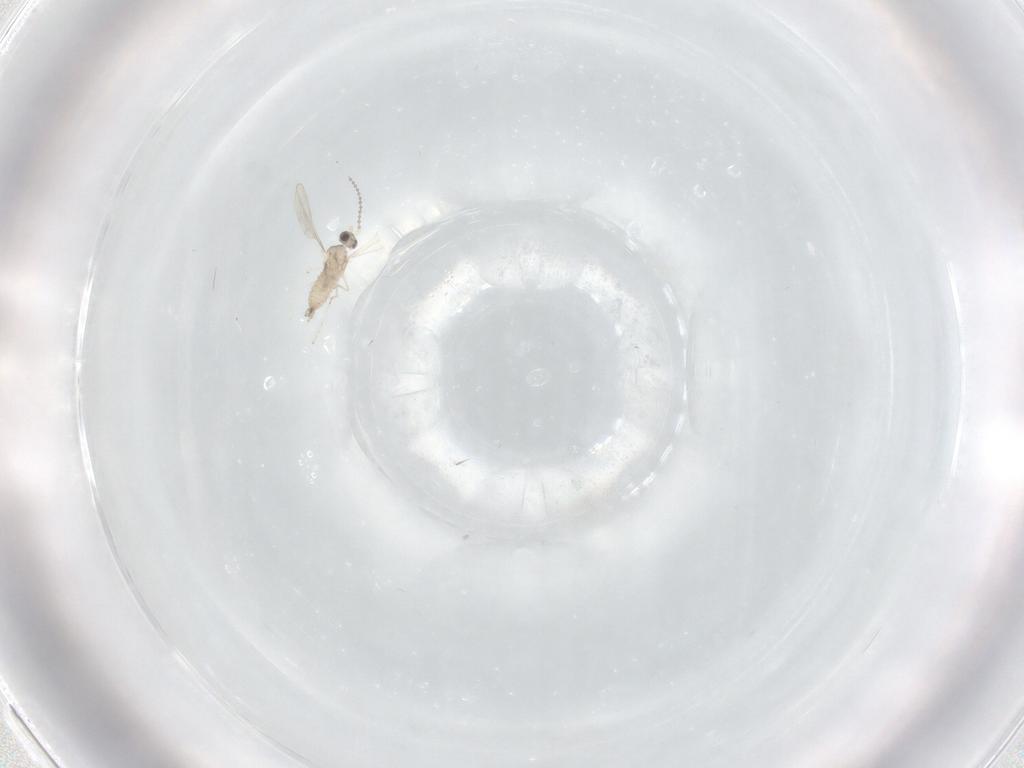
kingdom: Animalia
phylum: Arthropoda
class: Insecta
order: Diptera
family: Cecidomyiidae
